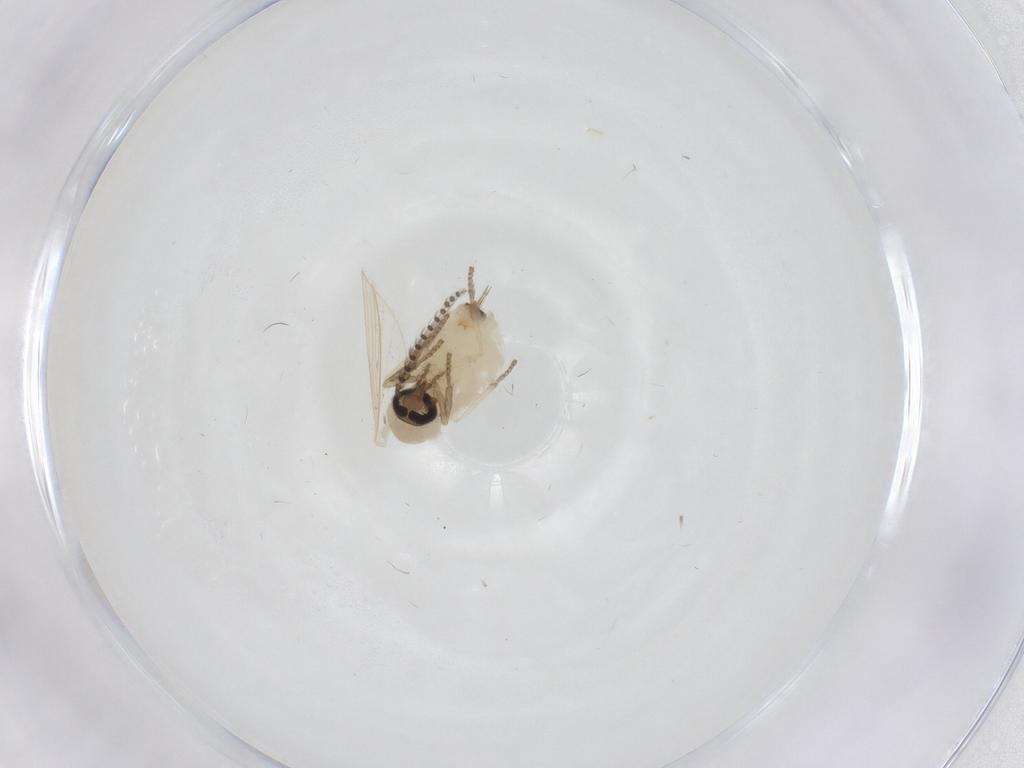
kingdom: Animalia
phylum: Arthropoda
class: Insecta
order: Diptera
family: Psychodidae
